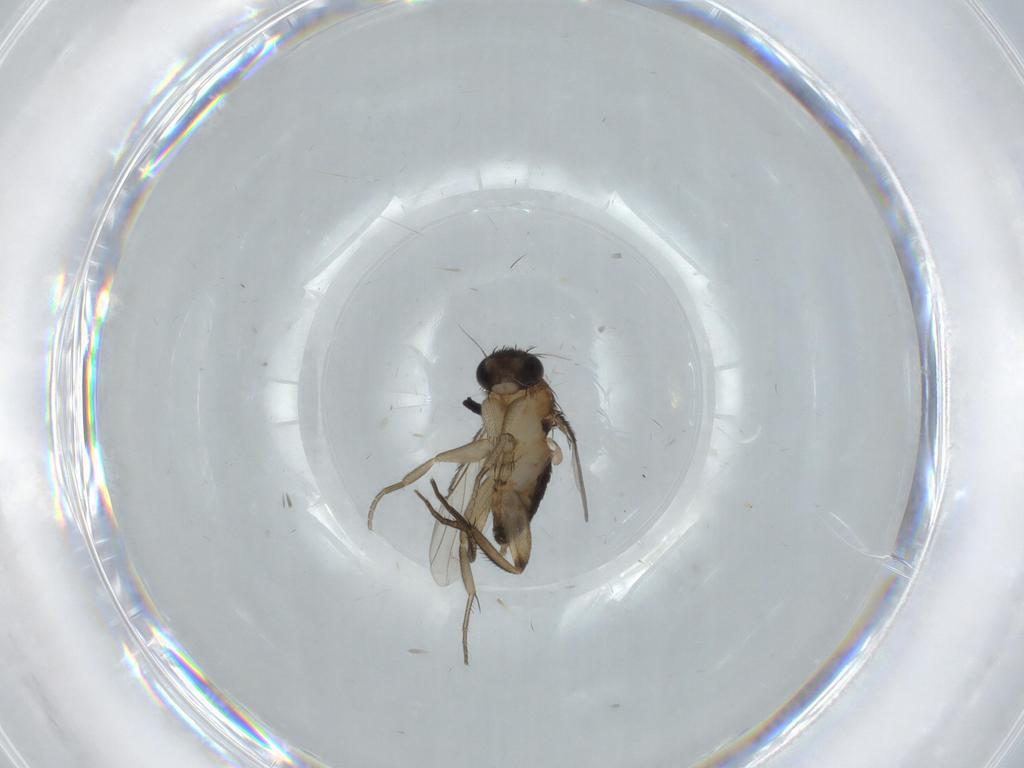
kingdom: Animalia
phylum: Arthropoda
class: Insecta
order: Diptera
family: Phoridae
